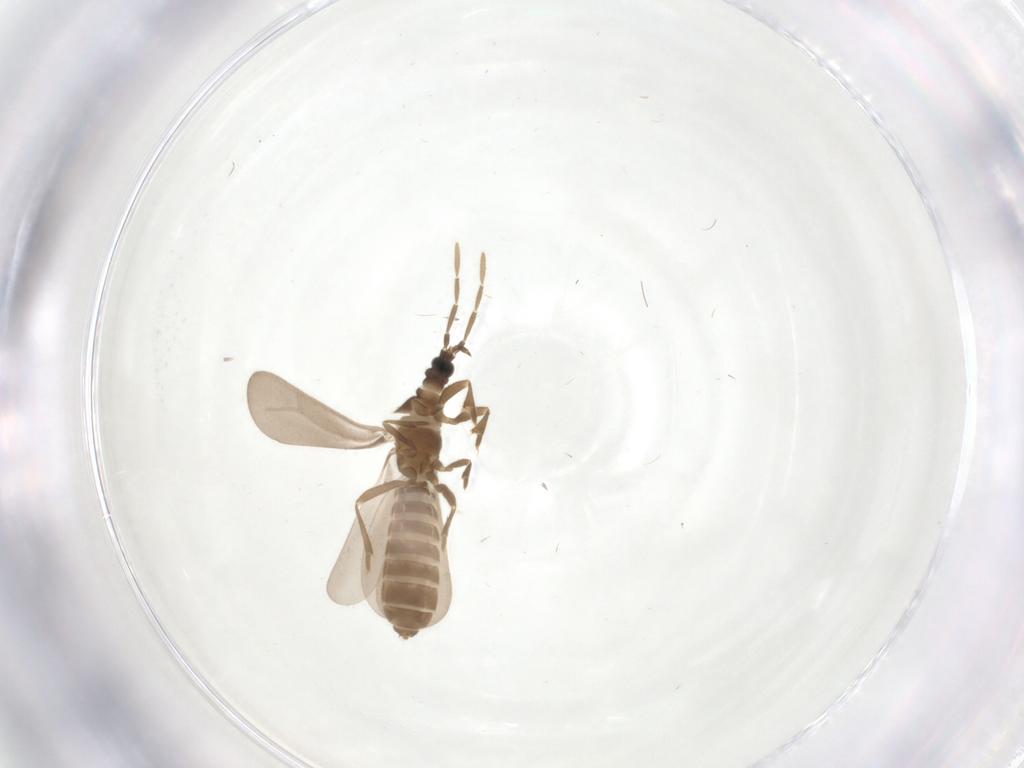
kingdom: Animalia
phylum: Arthropoda
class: Insecta
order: Hemiptera
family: Enicocephalidae
